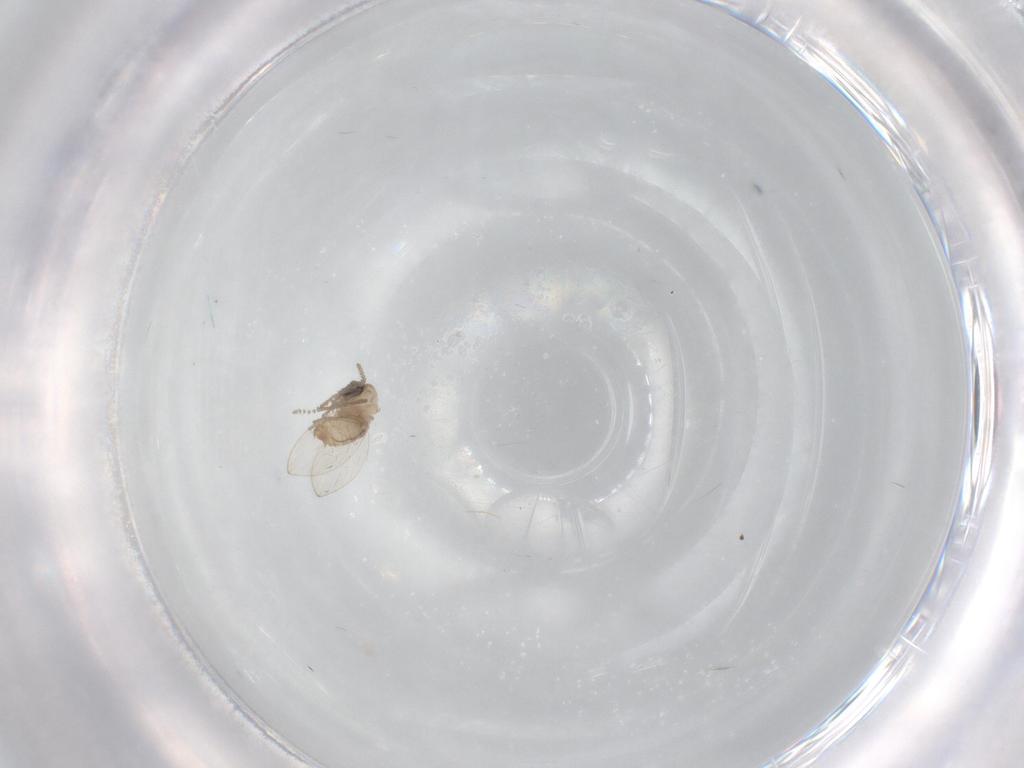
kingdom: Animalia
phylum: Arthropoda
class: Insecta
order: Diptera
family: Psychodidae
